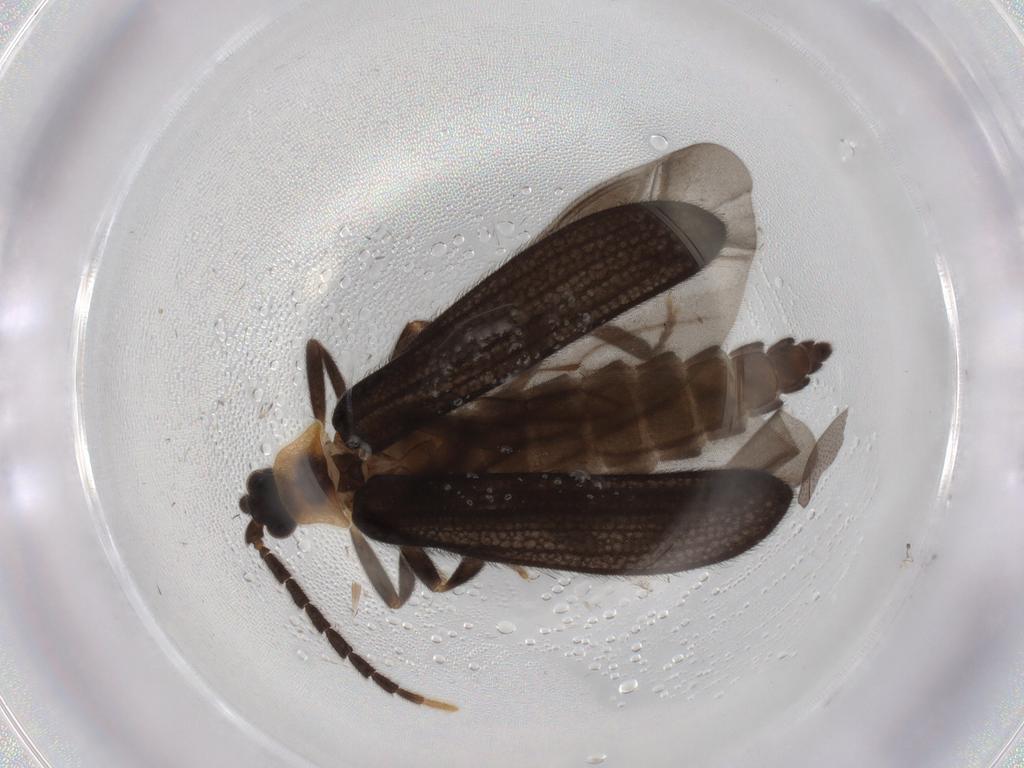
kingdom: Animalia
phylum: Arthropoda
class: Insecta
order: Coleoptera
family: Lycidae
